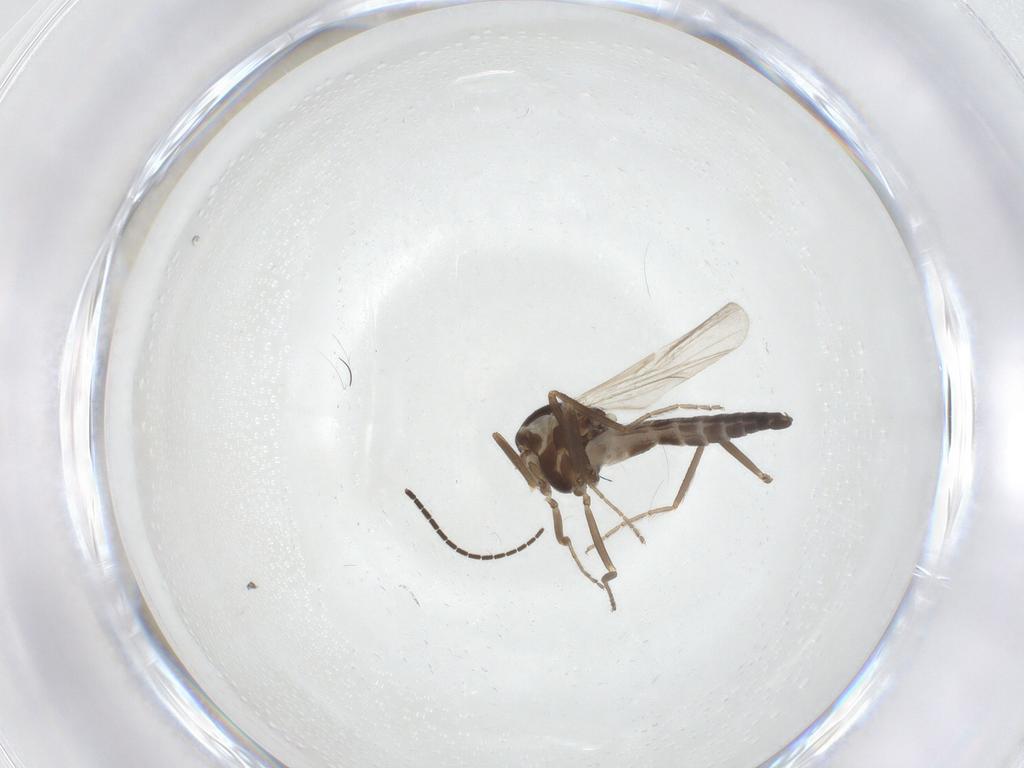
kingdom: Animalia
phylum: Arthropoda
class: Insecta
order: Diptera
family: Ceratopogonidae
